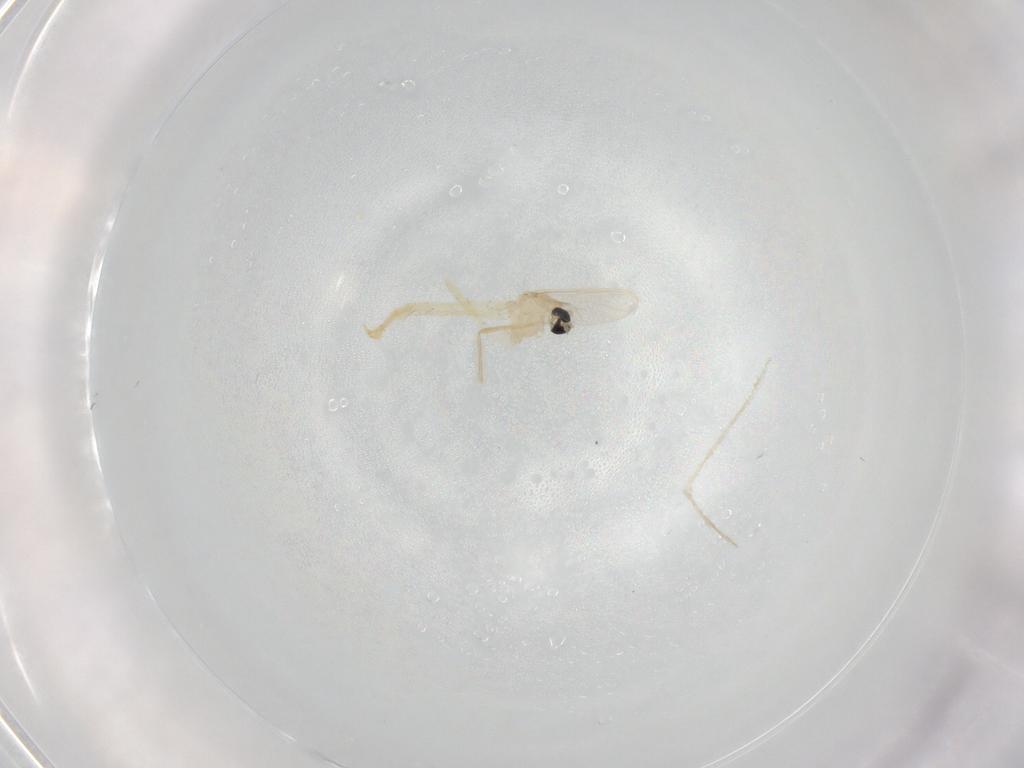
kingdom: Animalia
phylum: Arthropoda
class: Insecta
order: Diptera
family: Chironomidae
